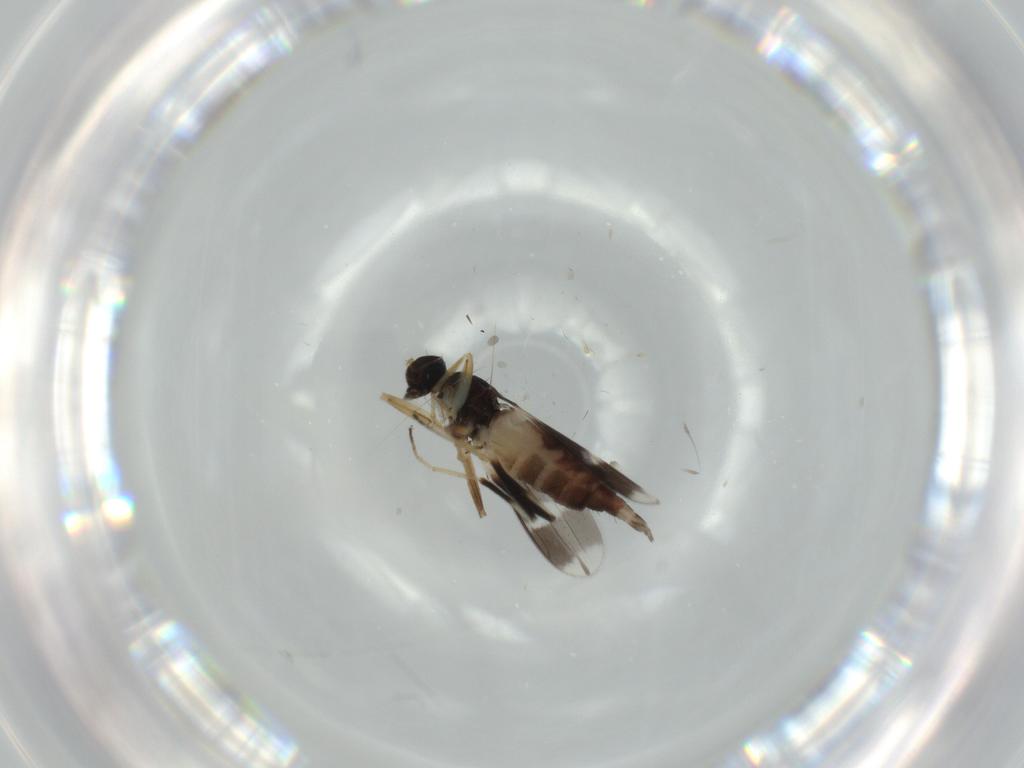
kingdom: Animalia
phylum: Arthropoda
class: Insecta
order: Diptera
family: Hybotidae
